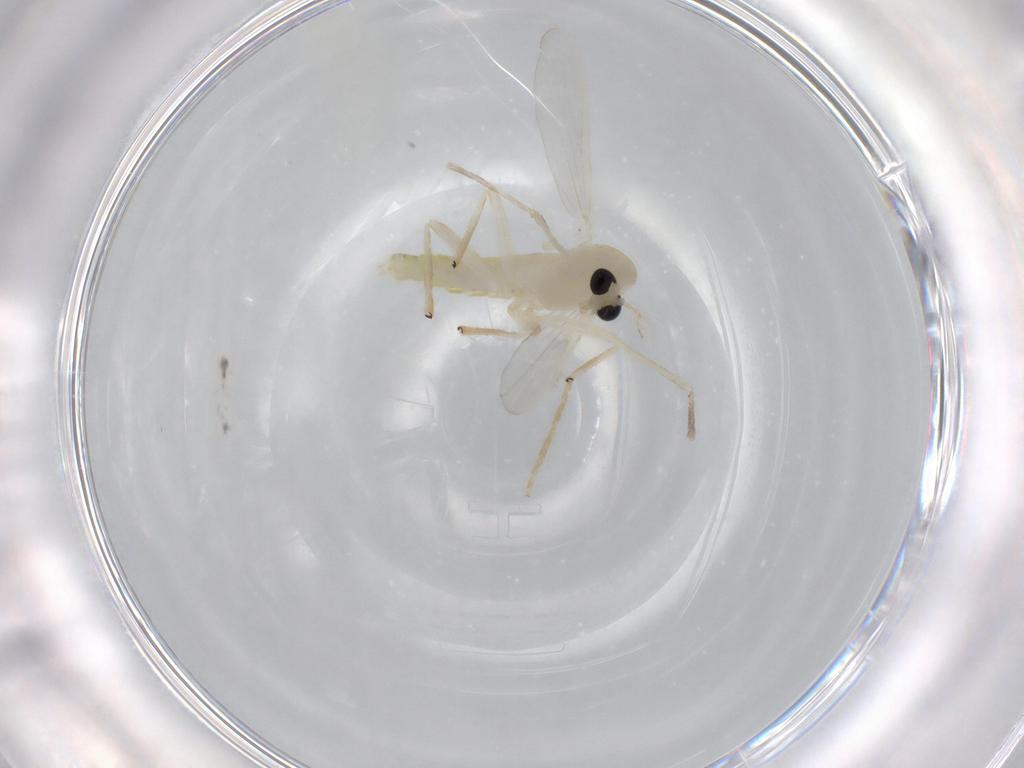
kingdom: Animalia
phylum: Arthropoda
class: Insecta
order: Diptera
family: Chironomidae
